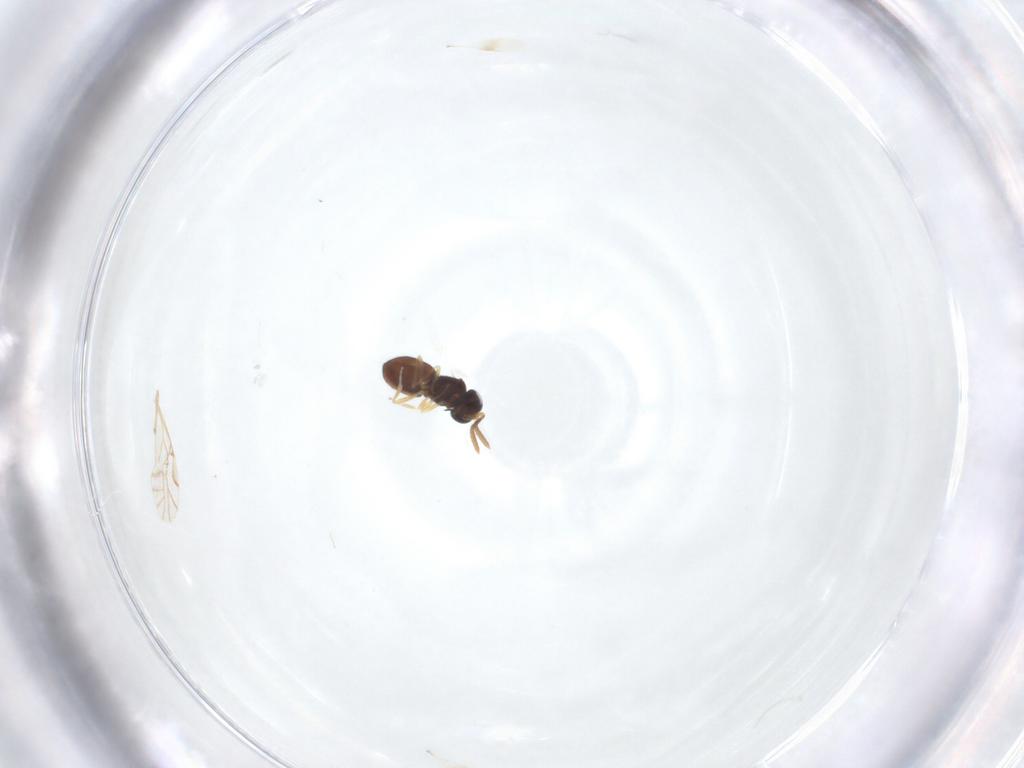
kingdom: Animalia
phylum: Arthropoda
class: Insecta
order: Hymenoptera
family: Scelionidae
